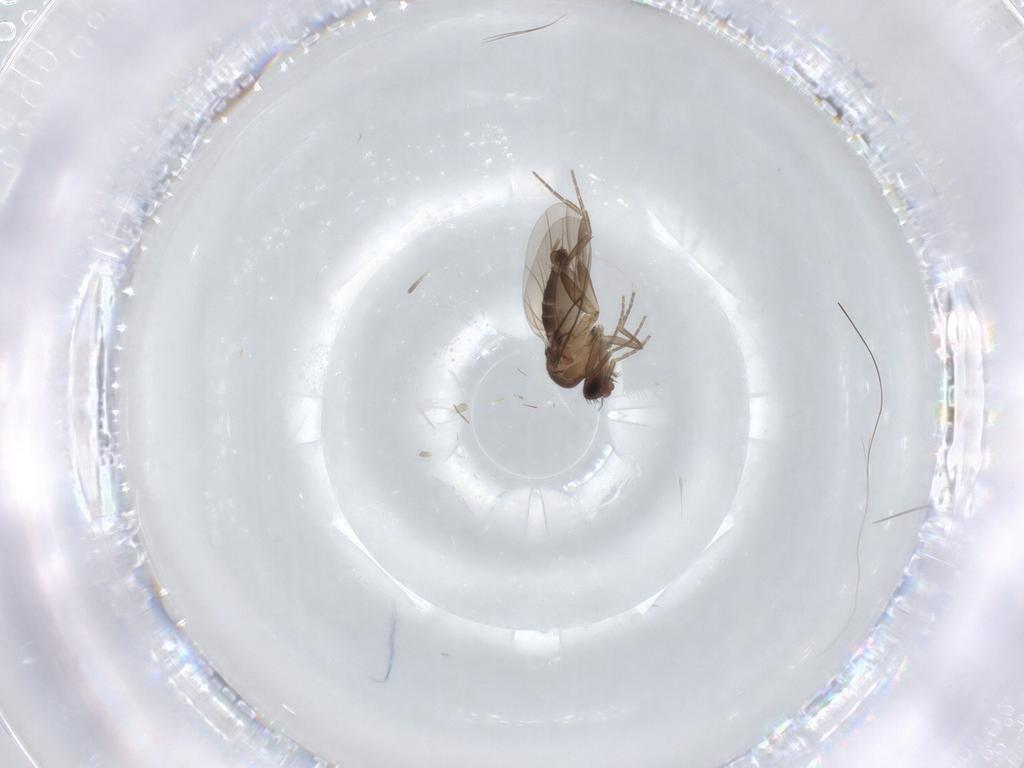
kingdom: Animalia
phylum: Arthropoda
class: Insecta
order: Diptera
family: Phoridae
